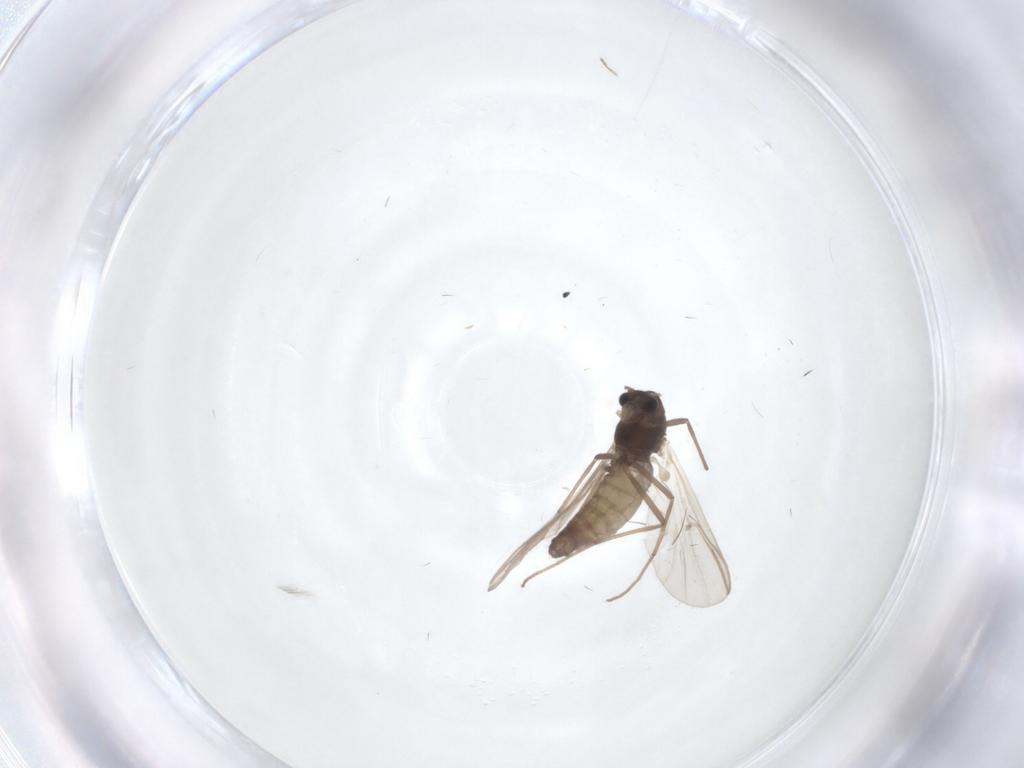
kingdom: Animalia
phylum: Arthropoda
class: Insecta
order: Diptera
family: Chironomidae
